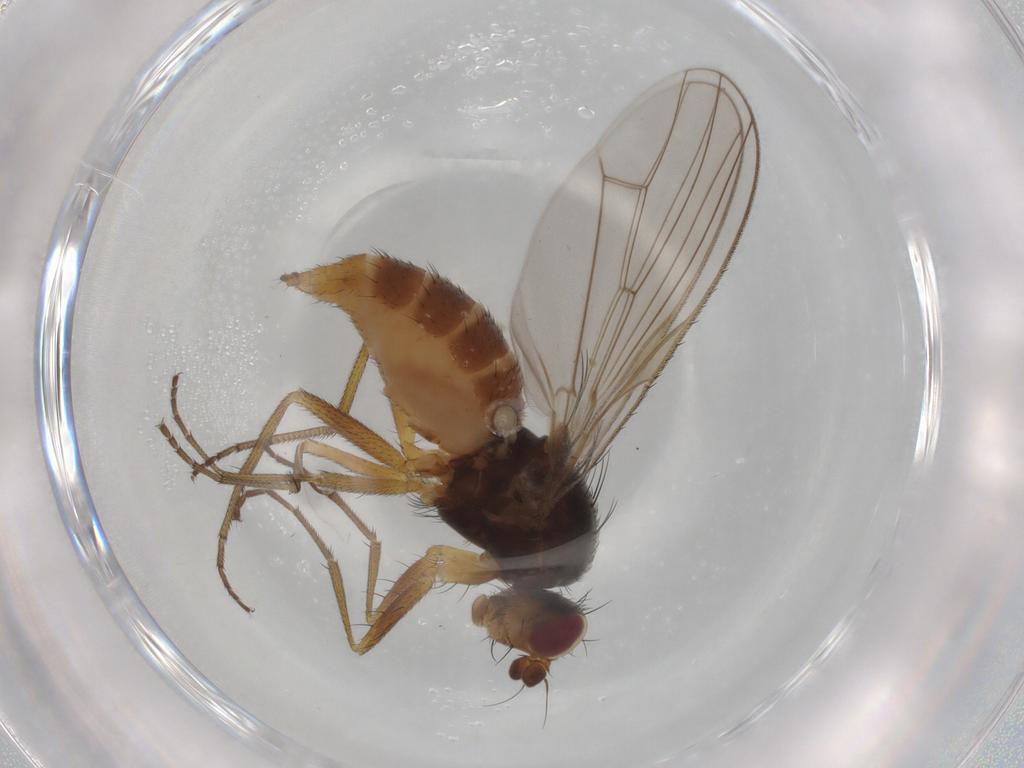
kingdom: Animalia
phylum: Arthropoda
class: Insecta
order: Diptera
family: Heleomyzidae
